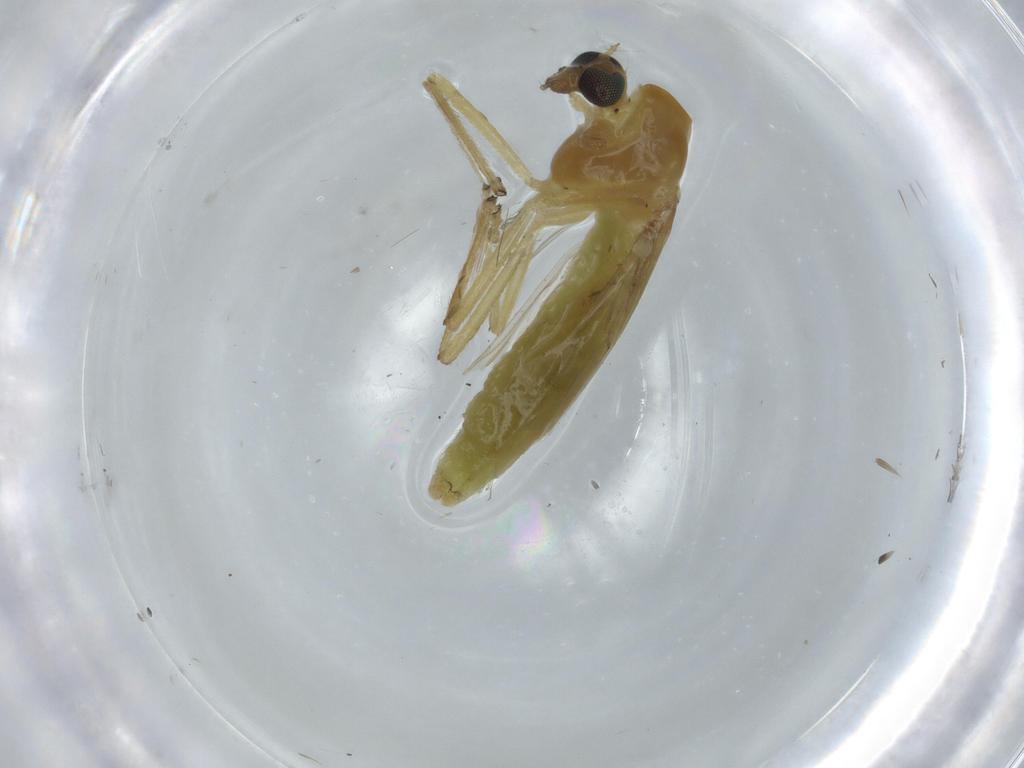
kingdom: Animalia
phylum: Arthropoda
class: Insecta
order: Diptera
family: Chironomidae
